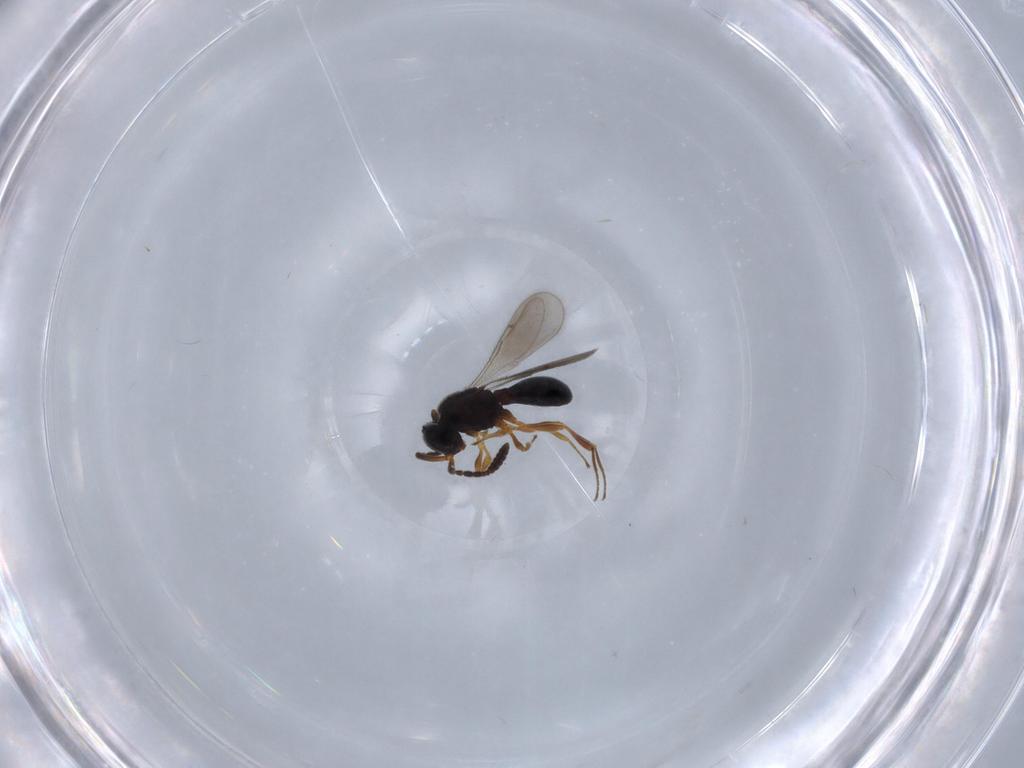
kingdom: Animalia
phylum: Arthropoda
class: Insecta
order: Hymenoptera
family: Scelionidae
